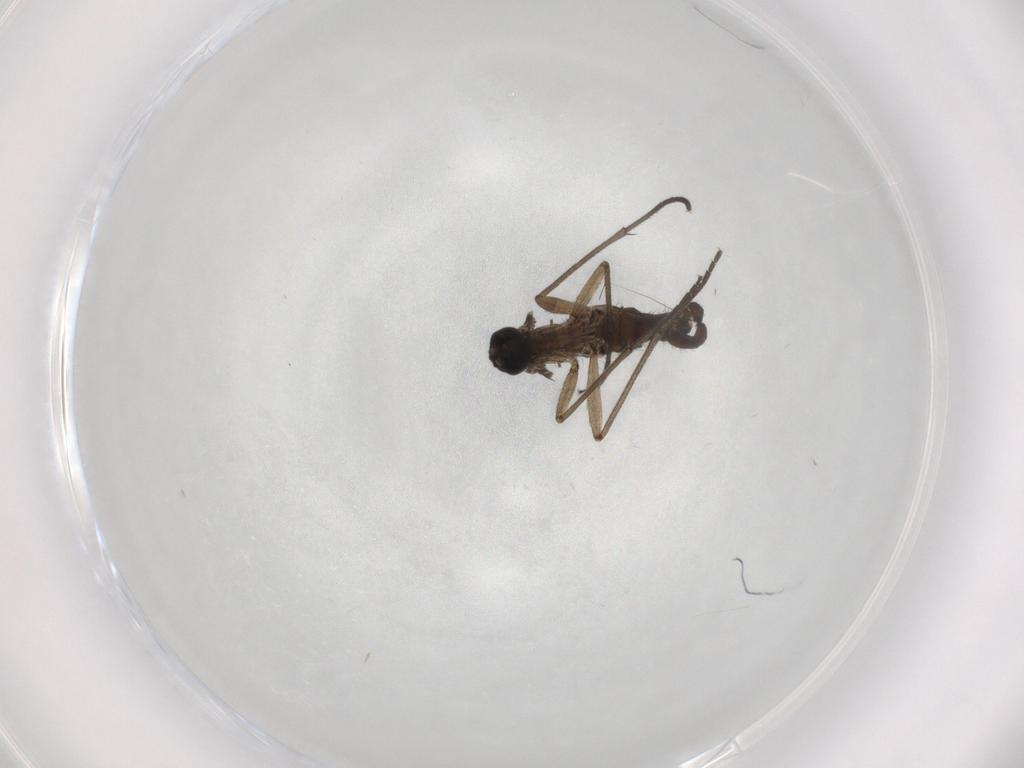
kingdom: Animalia
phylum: Arthropoda
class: Insecta
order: Diptera
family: Sciaridae
